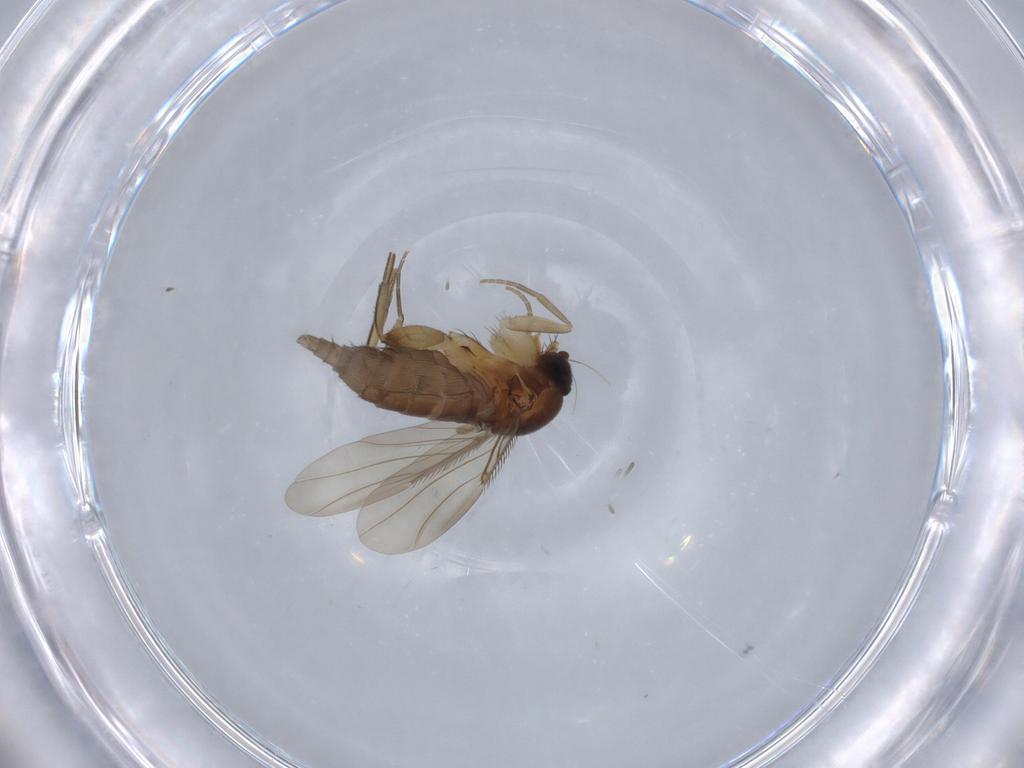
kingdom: Animalia
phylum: Arthropoda
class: Insecta
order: Diptera
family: Phoridae
